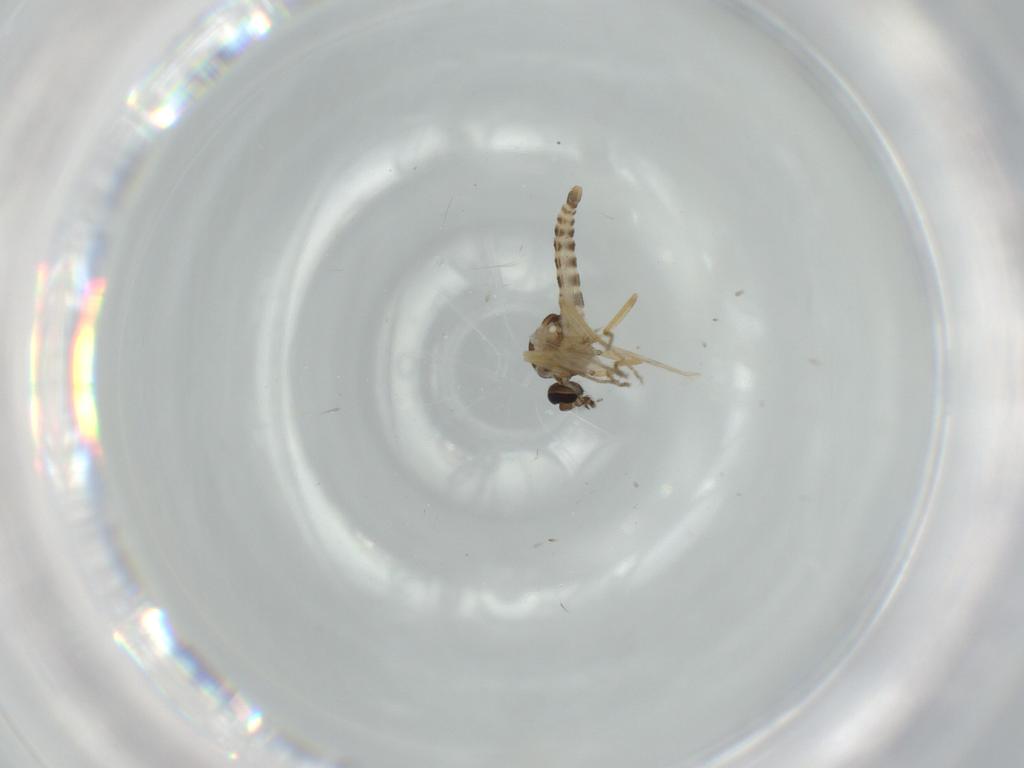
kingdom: Animalia
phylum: Arthropoda
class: Insecta
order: Diptera
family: Ceratopogonidae
